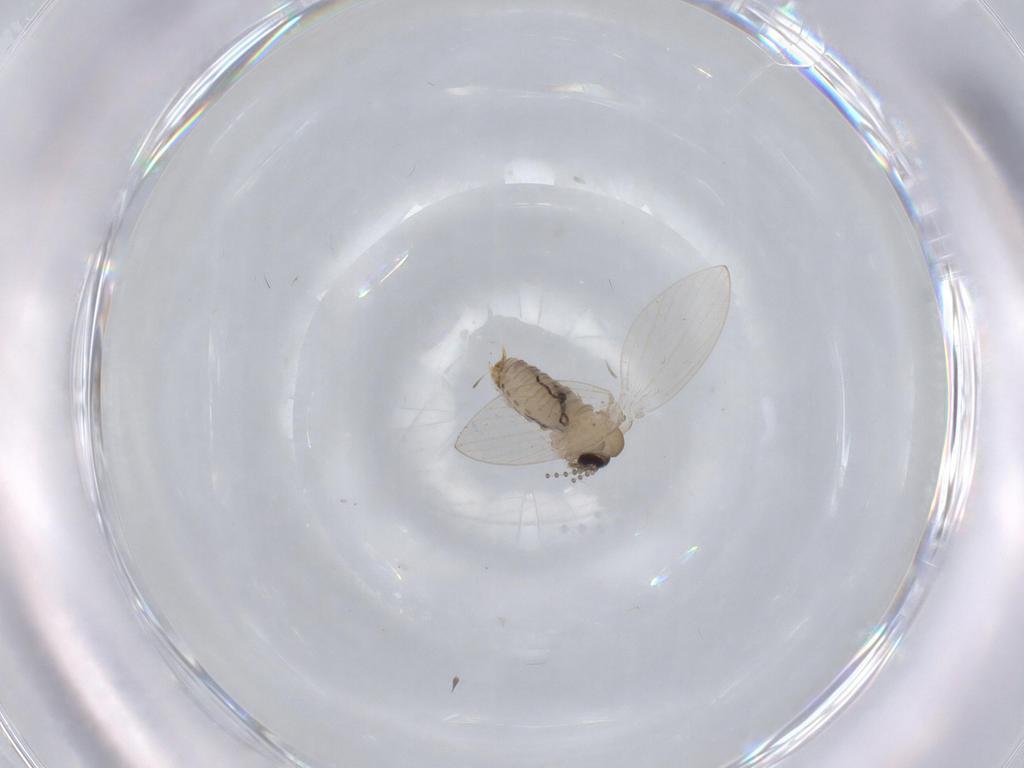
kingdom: Animalia
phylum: Arthropoda
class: Insecta
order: Diptera
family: Psychodidae
